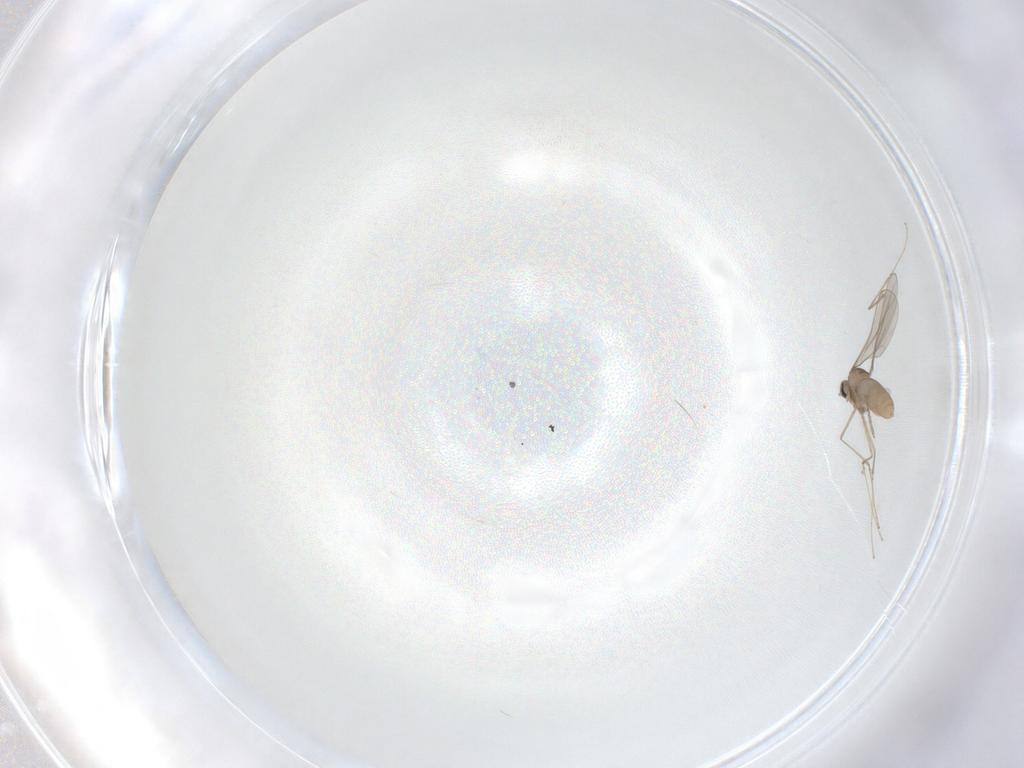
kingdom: Animalia
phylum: Arthropoda
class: Insecta
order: Diptera
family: Cecidomyiidae
